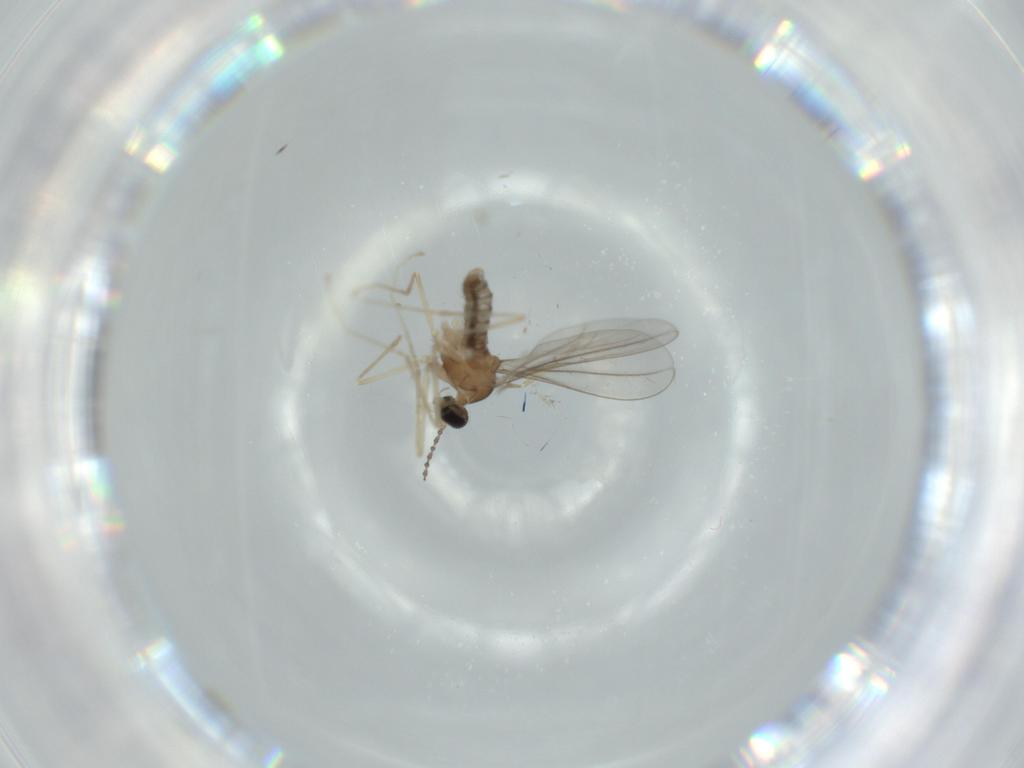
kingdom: Animalia
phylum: Arthropoda
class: Insecta
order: Diptera
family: Cecidomyiidae
